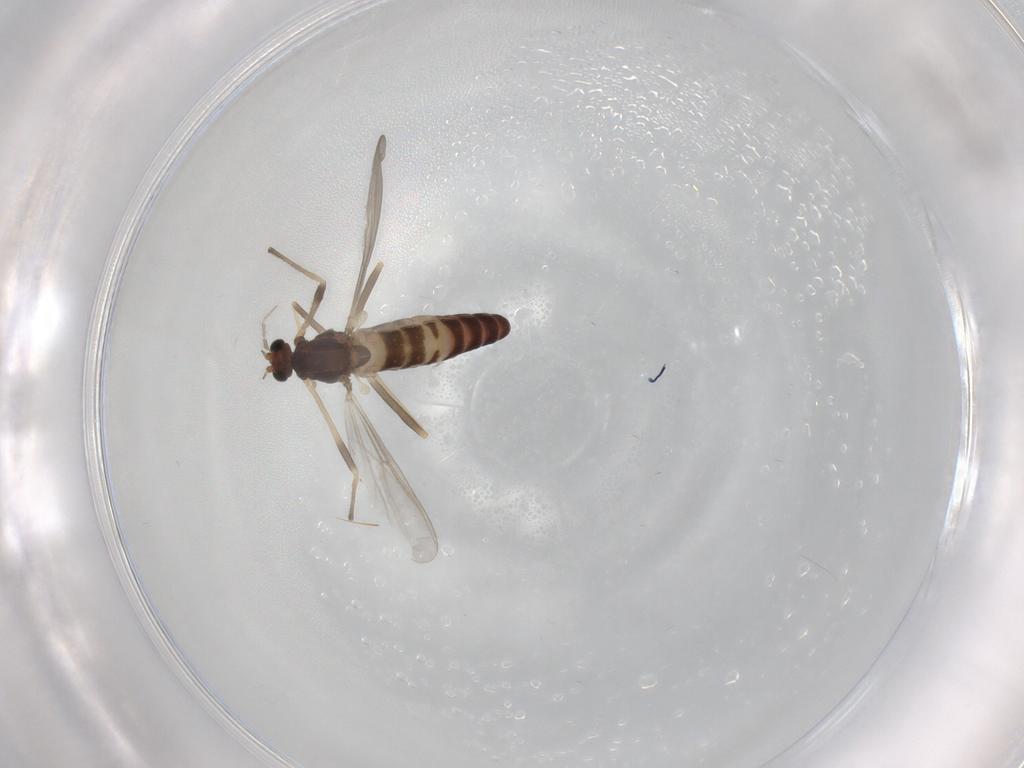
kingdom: Animalia
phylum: Arthropoda
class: Insecta
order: Diptera
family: Chironomidae
